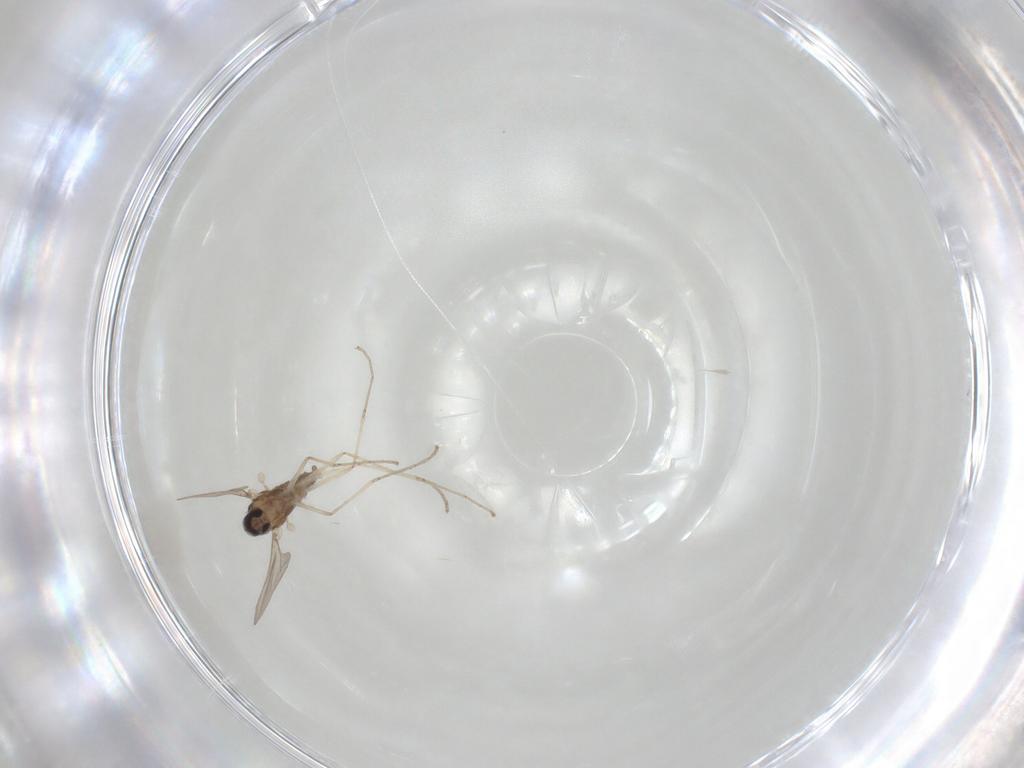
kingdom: Animalia
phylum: Arthropoda
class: Insecta
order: Diptera
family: Cecidomyiidae
